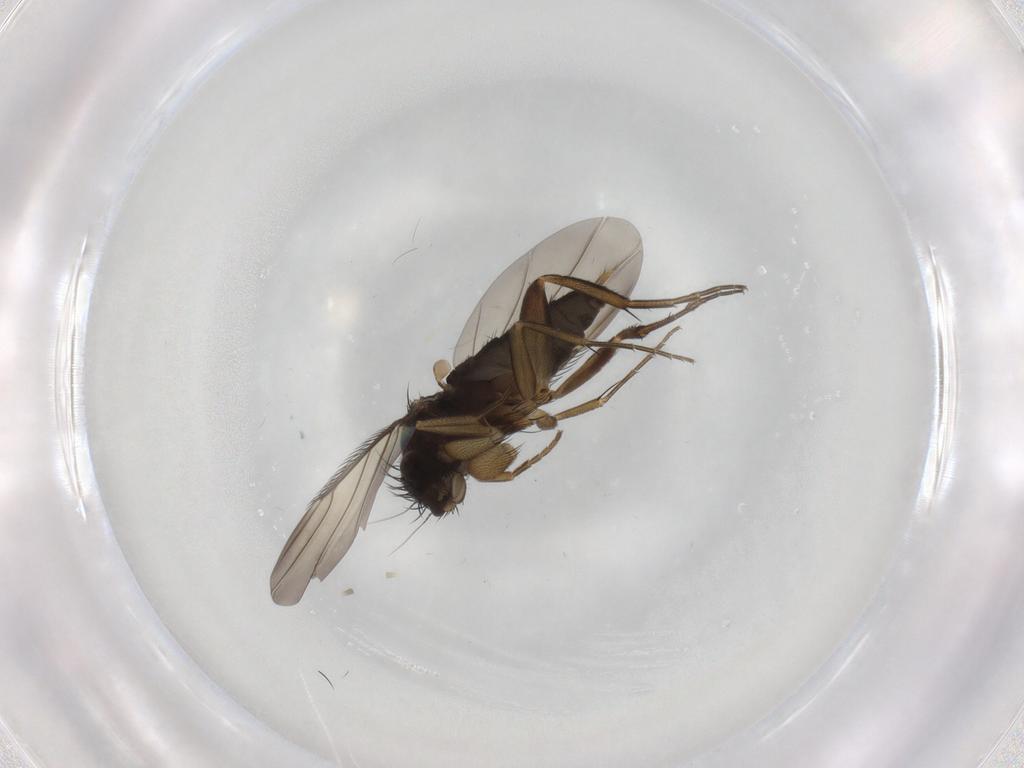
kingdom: Animalia
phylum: Arthropoda
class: Insecta
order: Diptera
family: Phoridae
